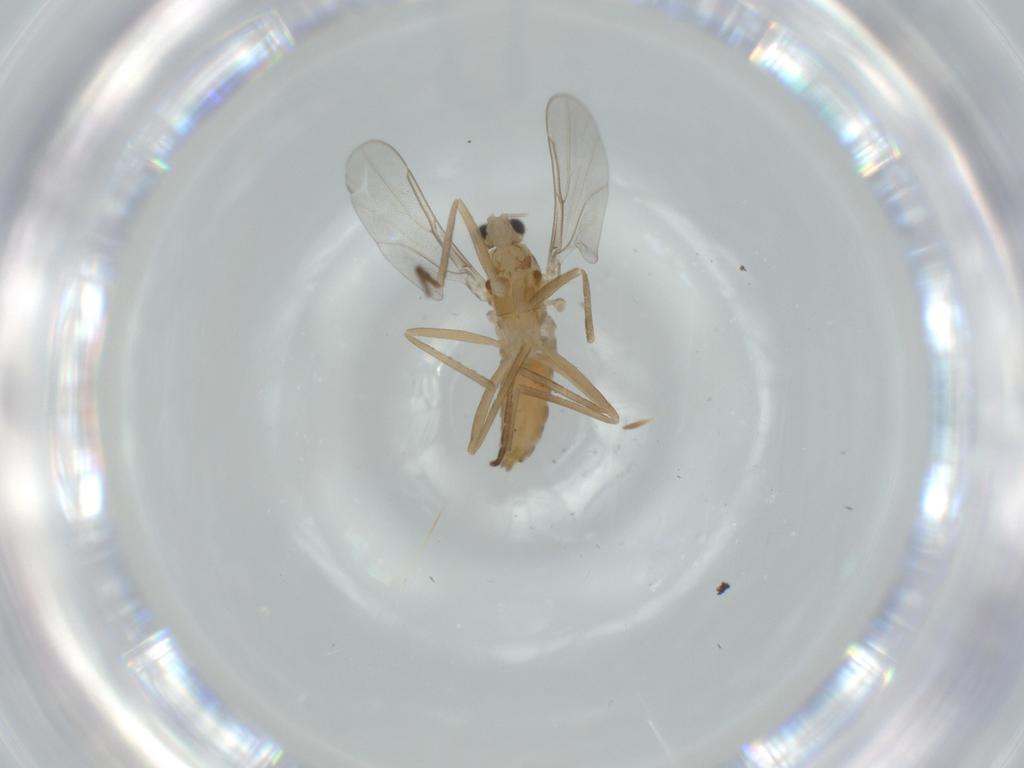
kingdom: Animalia
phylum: Arthropoda
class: Insecta
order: Diptera
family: Cecidomyiidae
